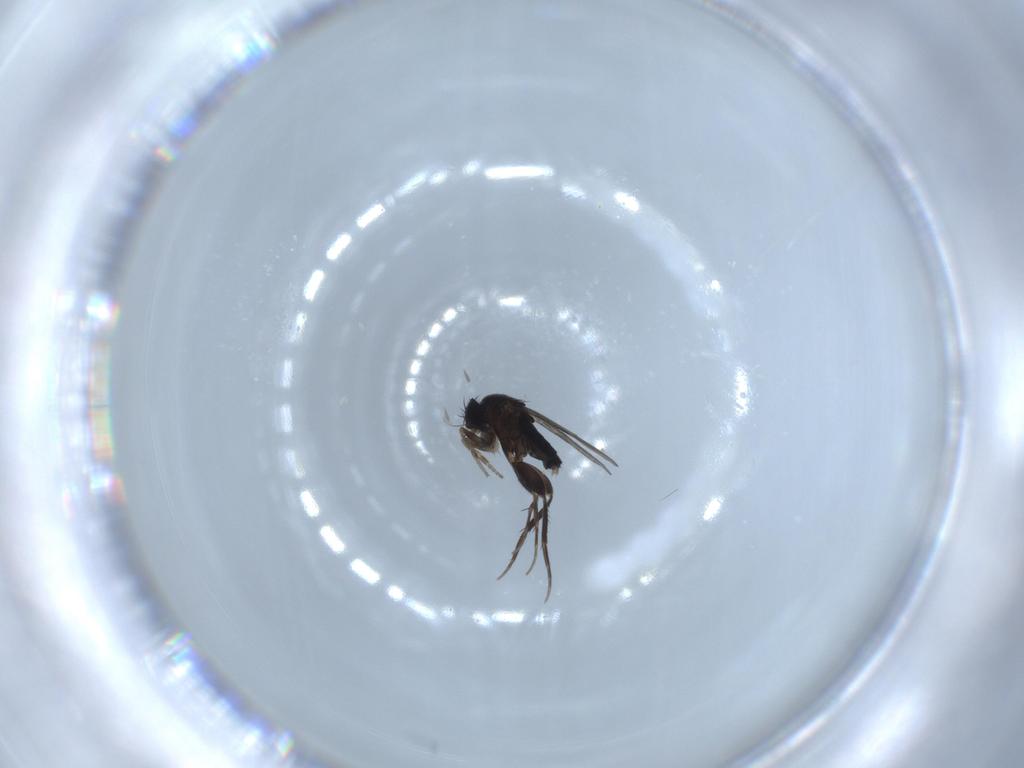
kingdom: Animalia
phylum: Arthropoda
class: Insecta
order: Diptera
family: Phoridae
